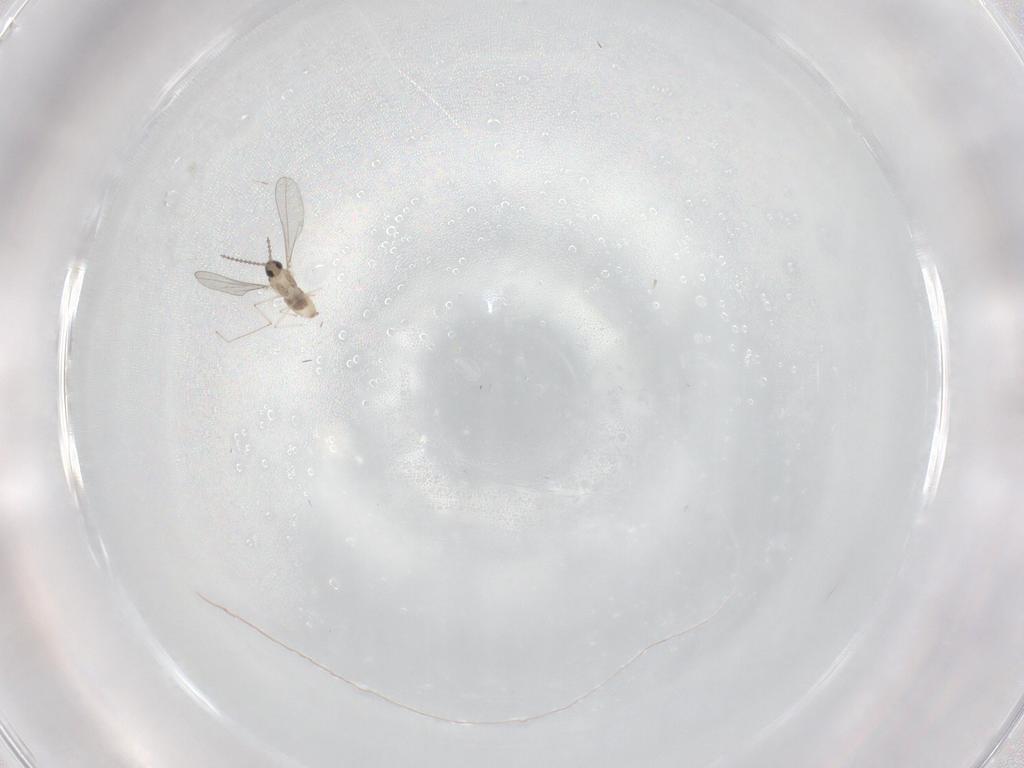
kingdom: Animalia
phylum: Arthropoda
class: Insecta
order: Diptera
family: Cecidomyiidae
